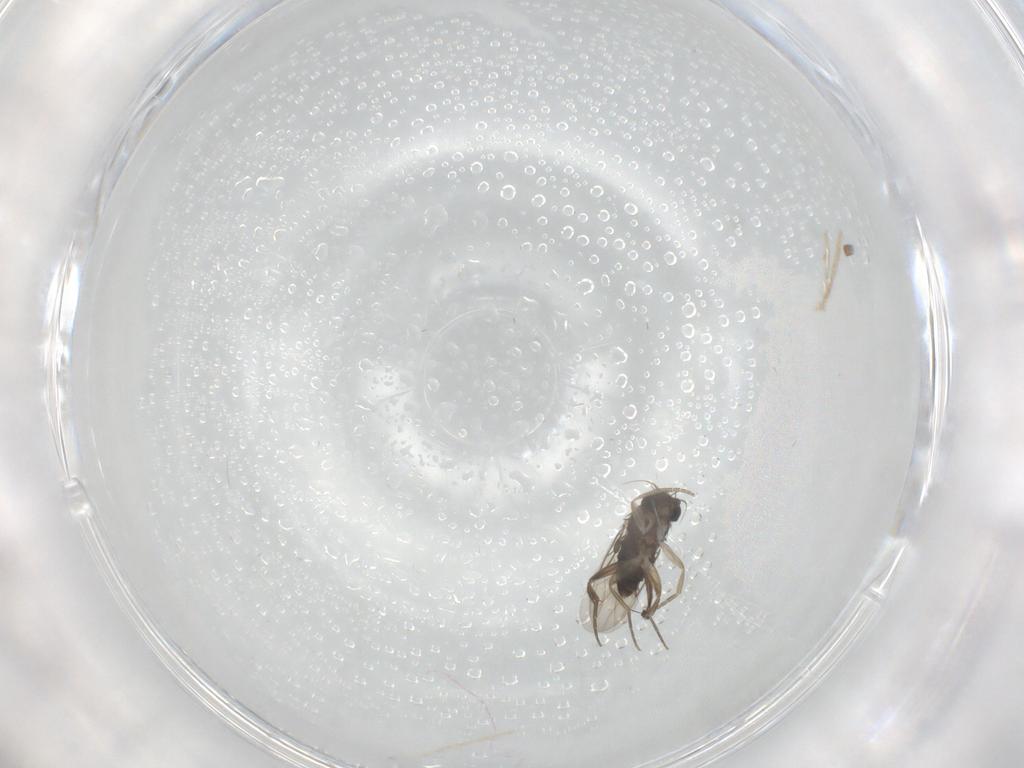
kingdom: Animalia
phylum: Arthropoda
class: Insecta
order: Diptera
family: Phoridae
